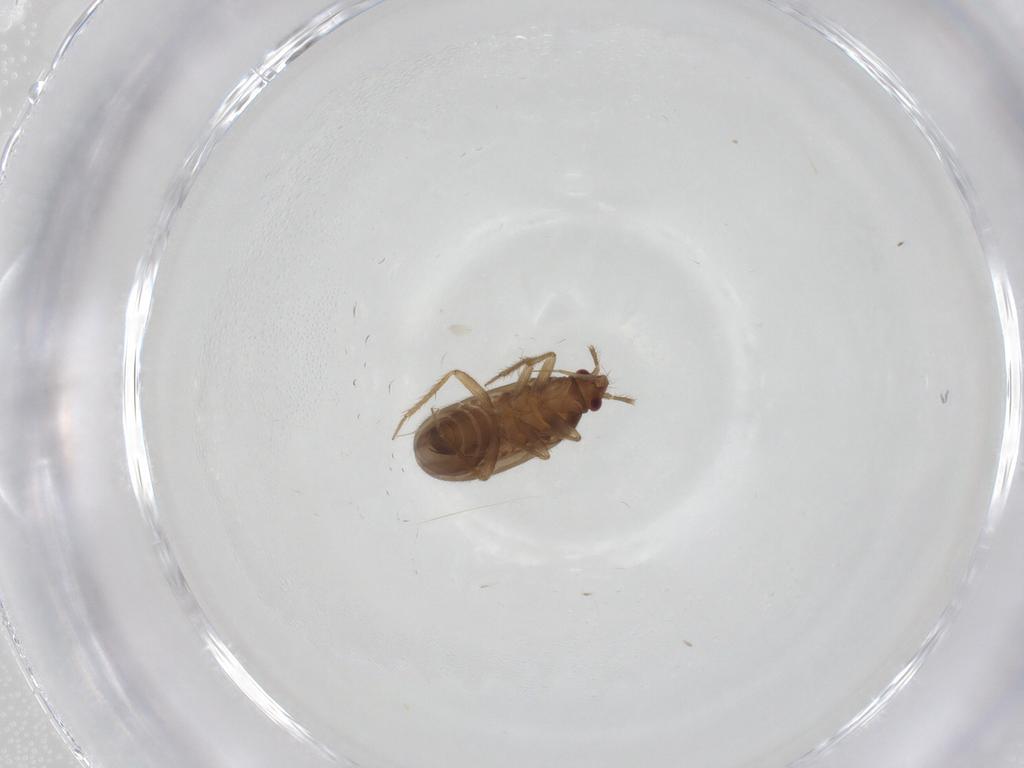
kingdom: Animalia
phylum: Arthropoda
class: Insecta
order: Hemiptera
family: Ceratocombidae
